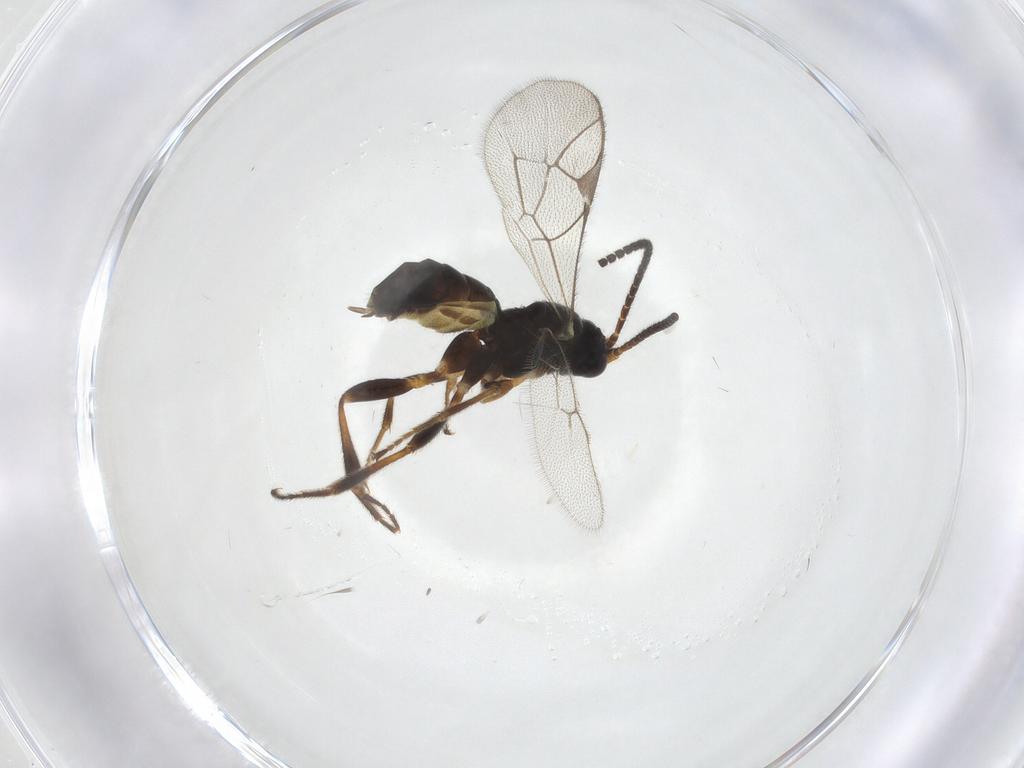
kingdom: Animalia
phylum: Arthropoda
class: Insecta
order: Hymenoptera
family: Ichneumonidae
